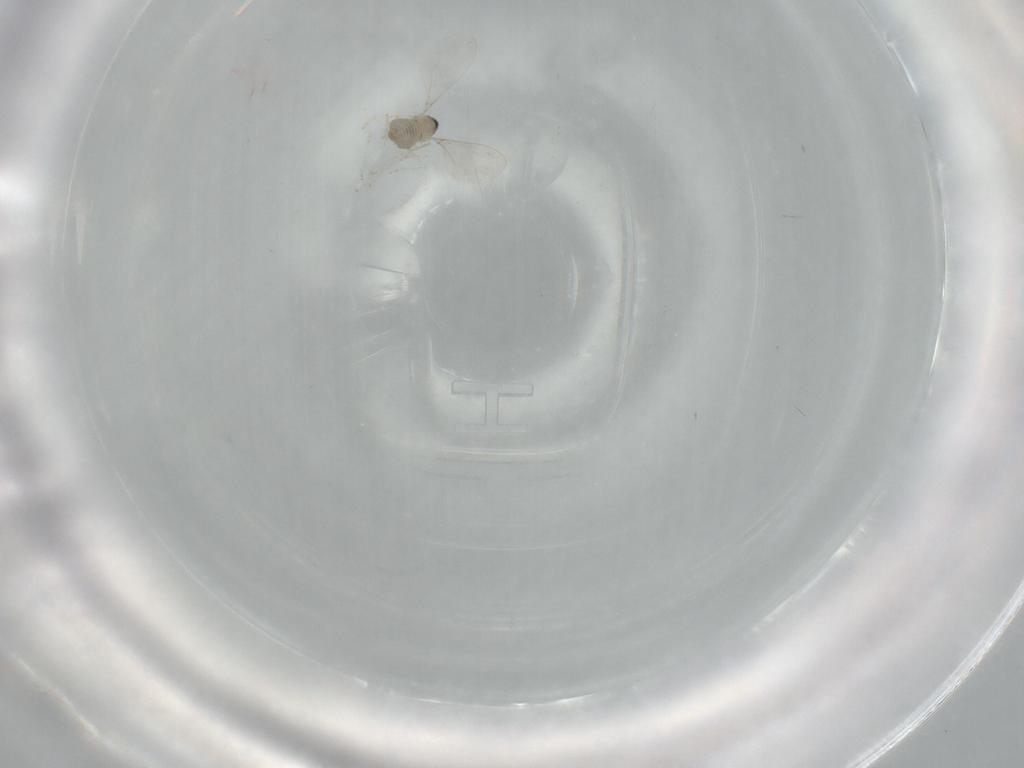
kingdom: Animalia
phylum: Arthropoda
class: Insecta
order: Diptera
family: Cecidomyiidae
